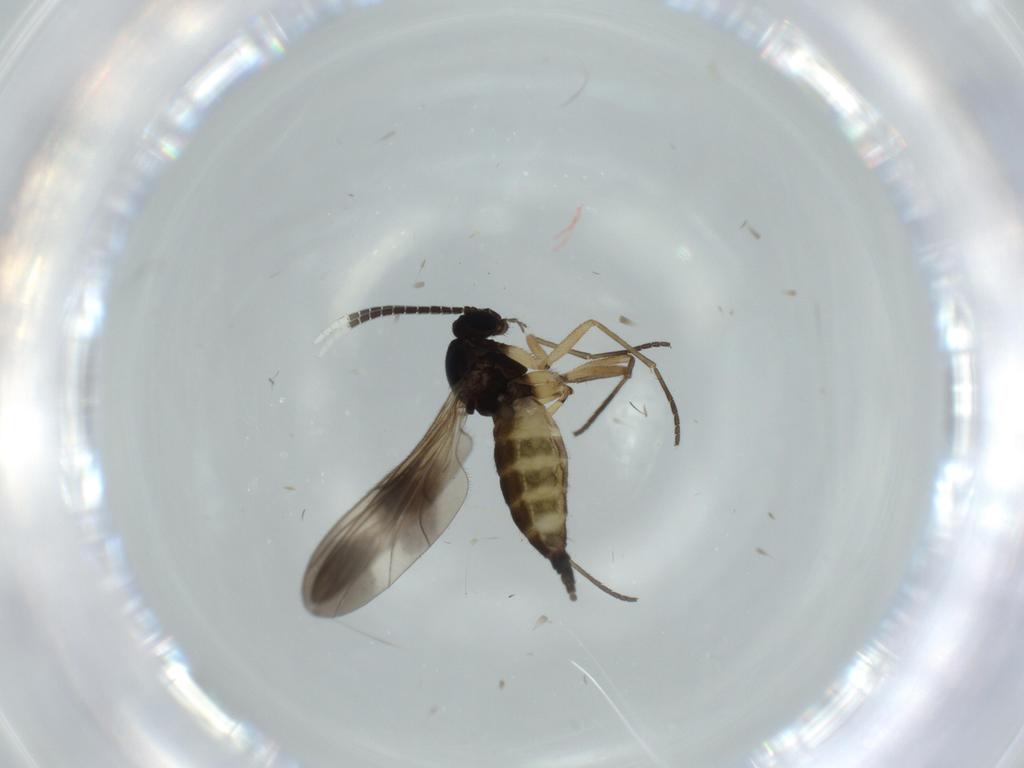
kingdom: Animalia
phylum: Arthropoda
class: Insecta
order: Diptera
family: Sciaridae
